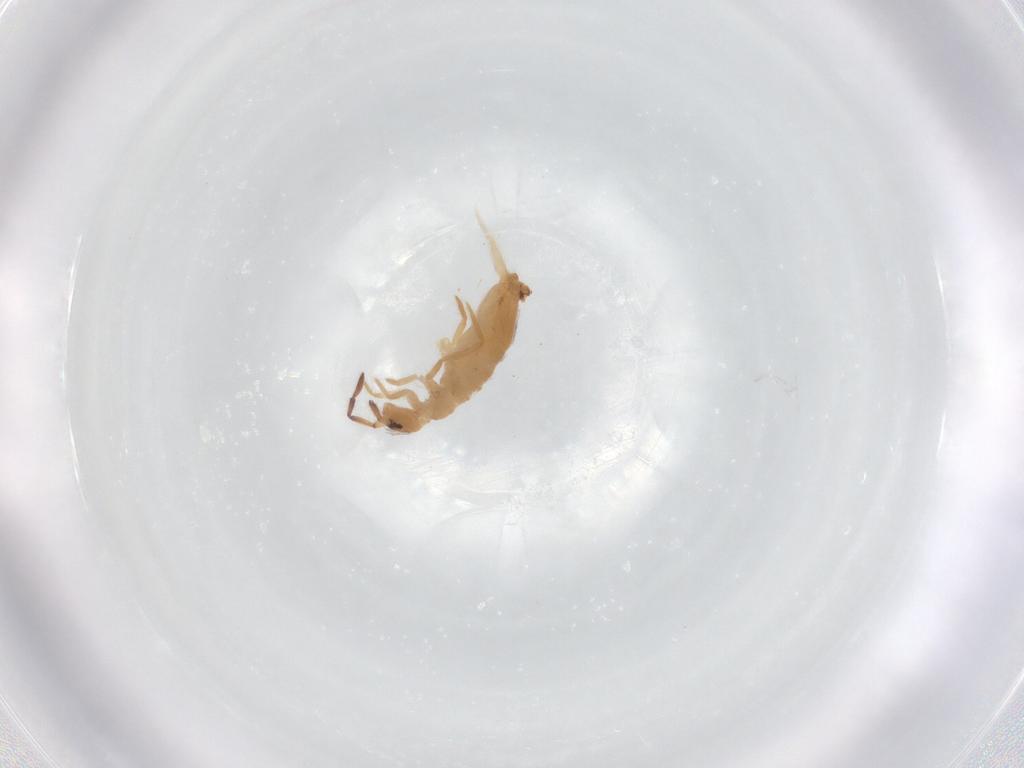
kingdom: Animalia
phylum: Arthropoda
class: Collembola
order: Entomobryomorpha
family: Entomobryidae
